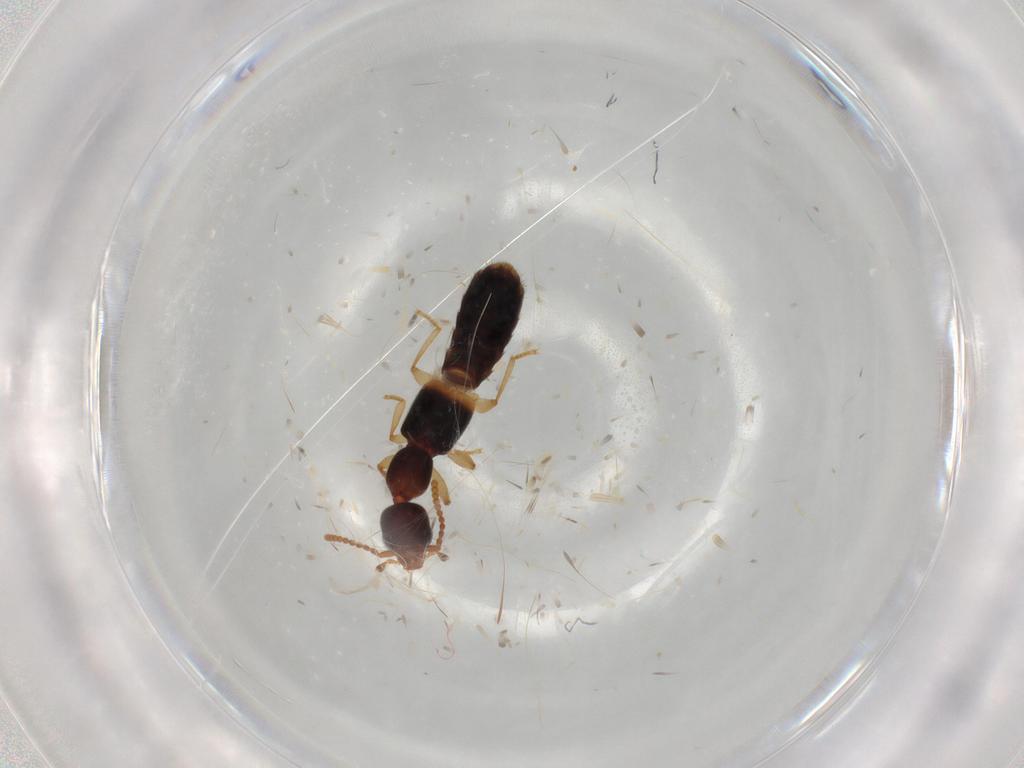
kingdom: Animalia
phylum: Arthropoda
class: Insecta
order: Coleoptera
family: Staphylinidae
